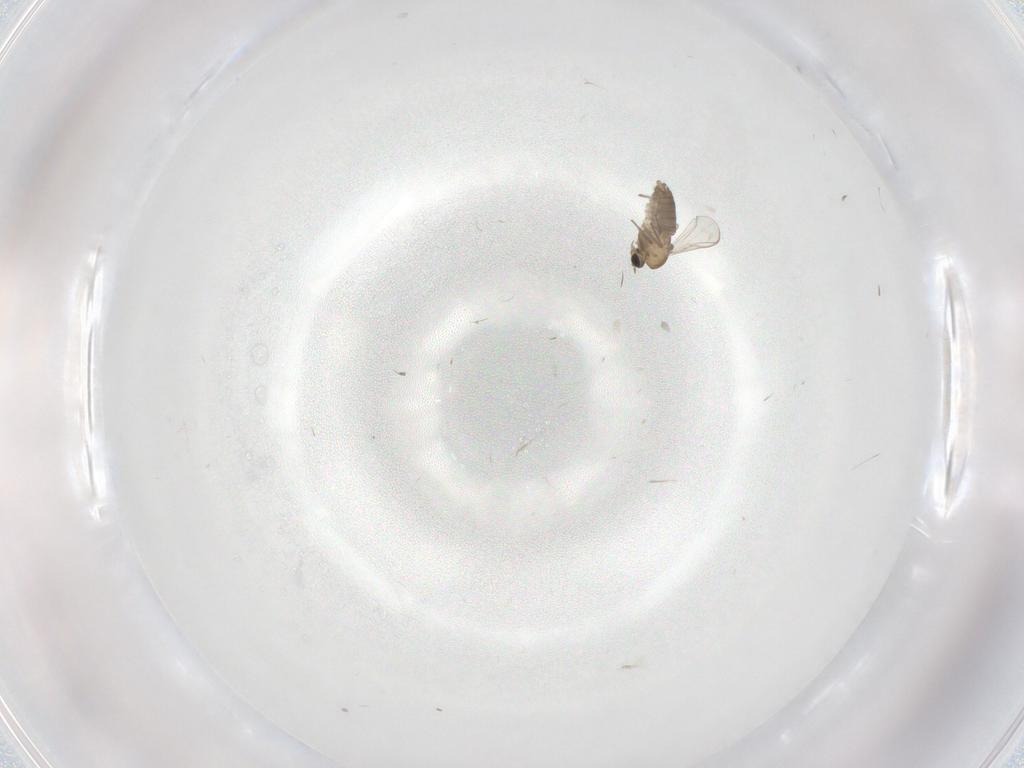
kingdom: Animalia
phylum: Arthropoda
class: Insecta
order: Diptera
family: Chironomidae
